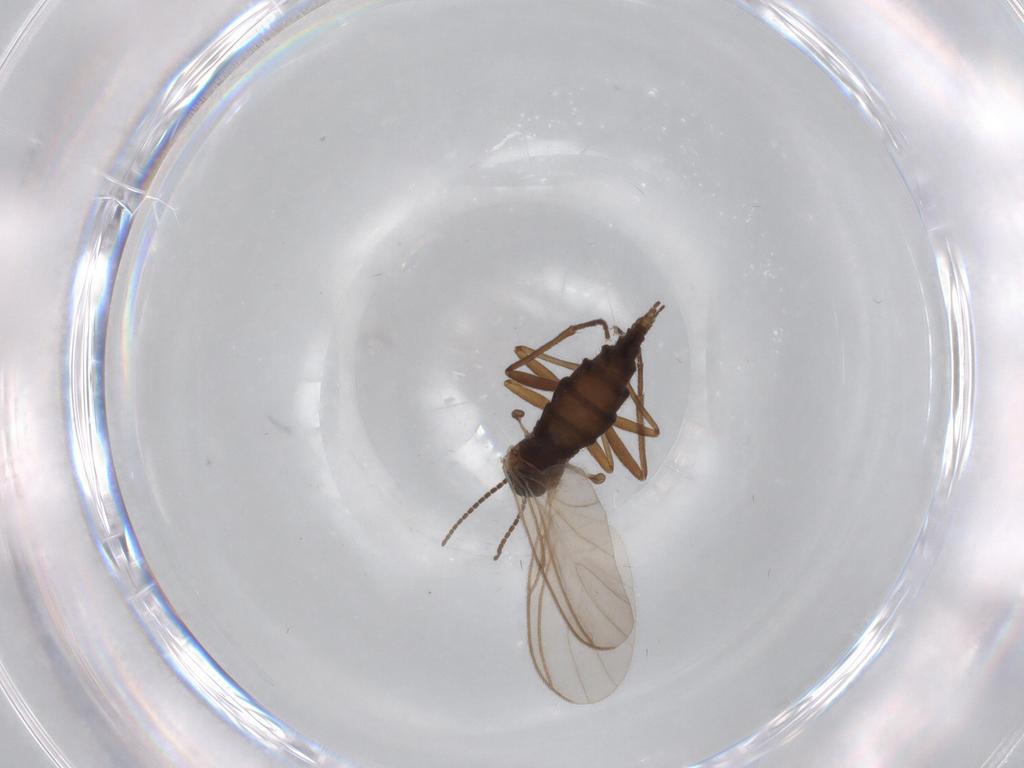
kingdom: Animalia
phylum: Arthropoda
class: Insecta
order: Diptera
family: Sciaridae
